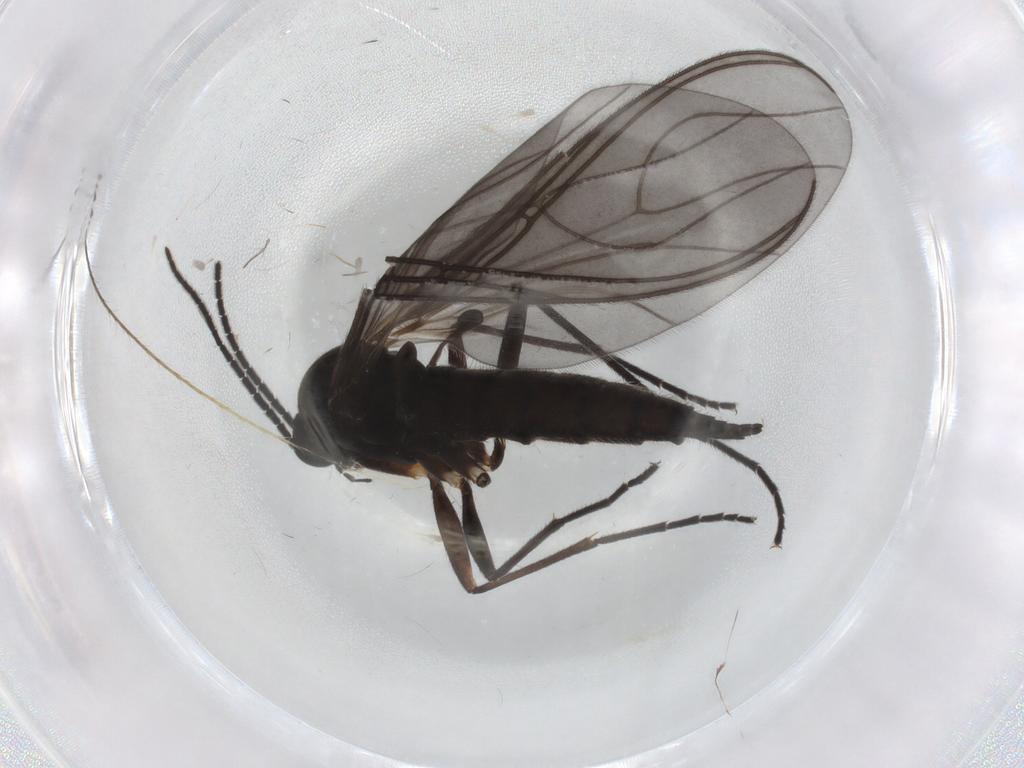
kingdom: Animalia
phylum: Arthropoda
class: Insecta
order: Diptera
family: Sciaridae
